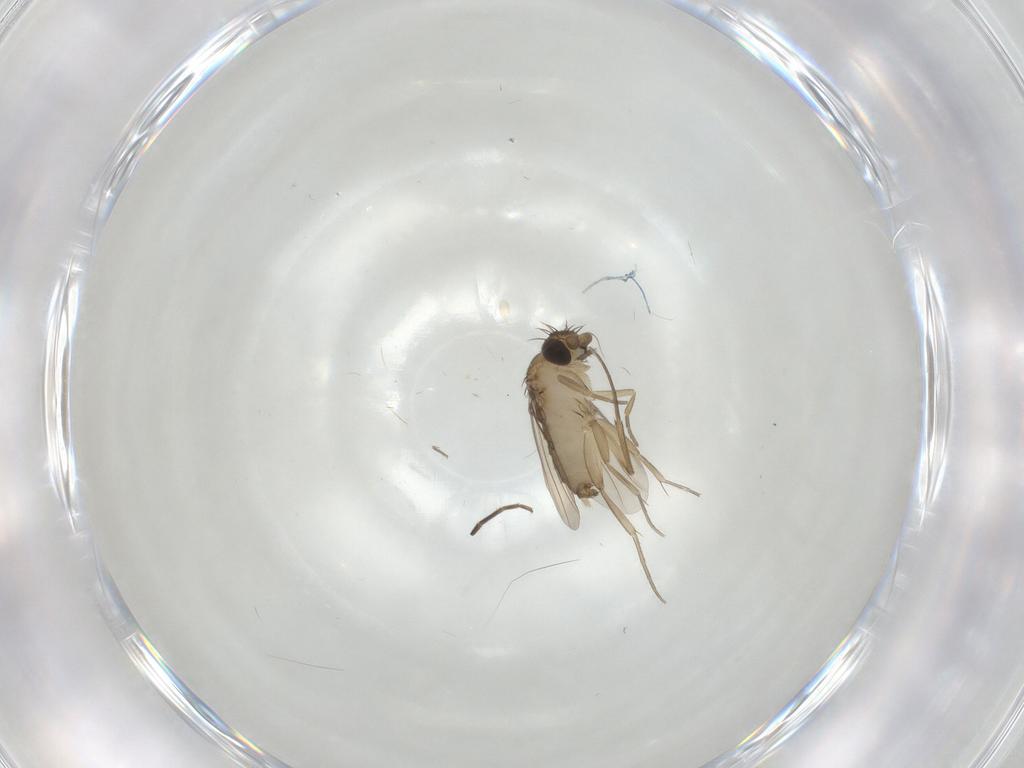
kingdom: Animalia
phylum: Arthropoda
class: Insecta
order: Diptera
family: Phoridae
